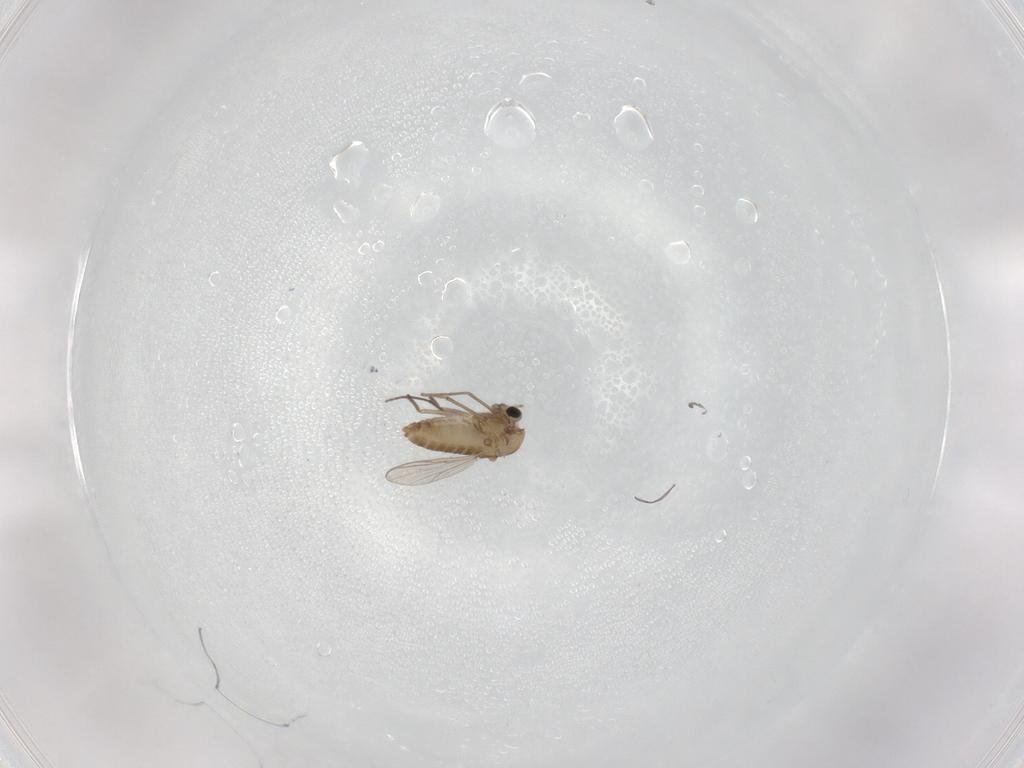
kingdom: Animalia
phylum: Arthropoda
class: Insecta
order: Diptera
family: Chironomidae
